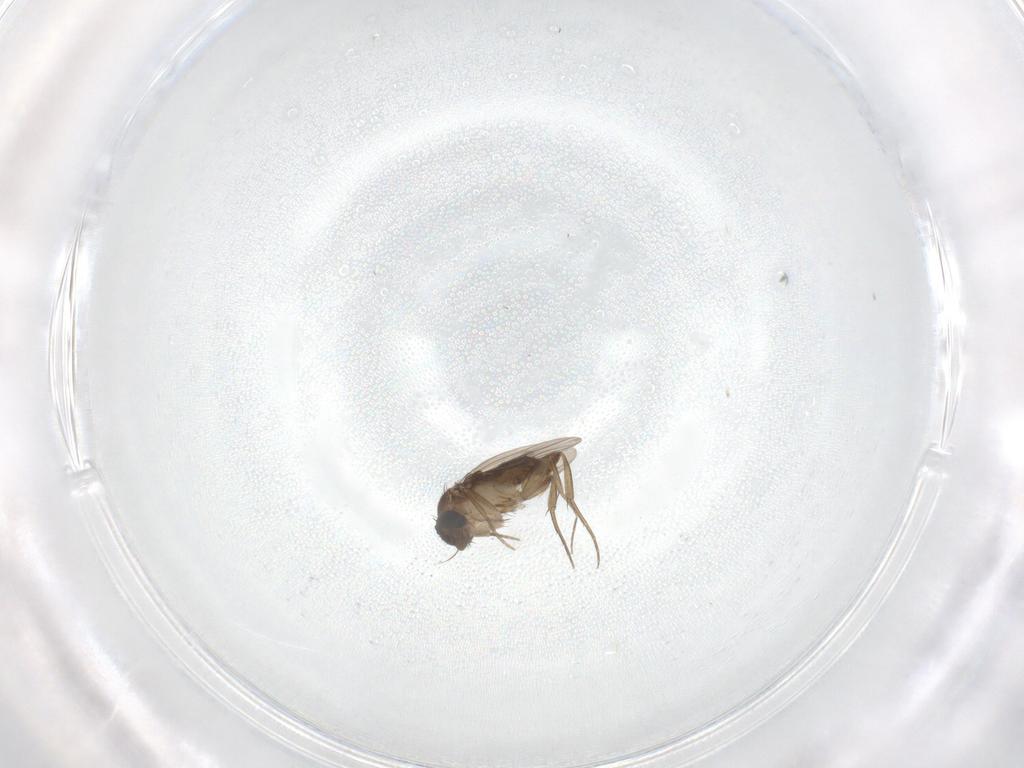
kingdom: Animalia
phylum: Arthropoda
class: Insecta
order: Diptera
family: Phoridae
